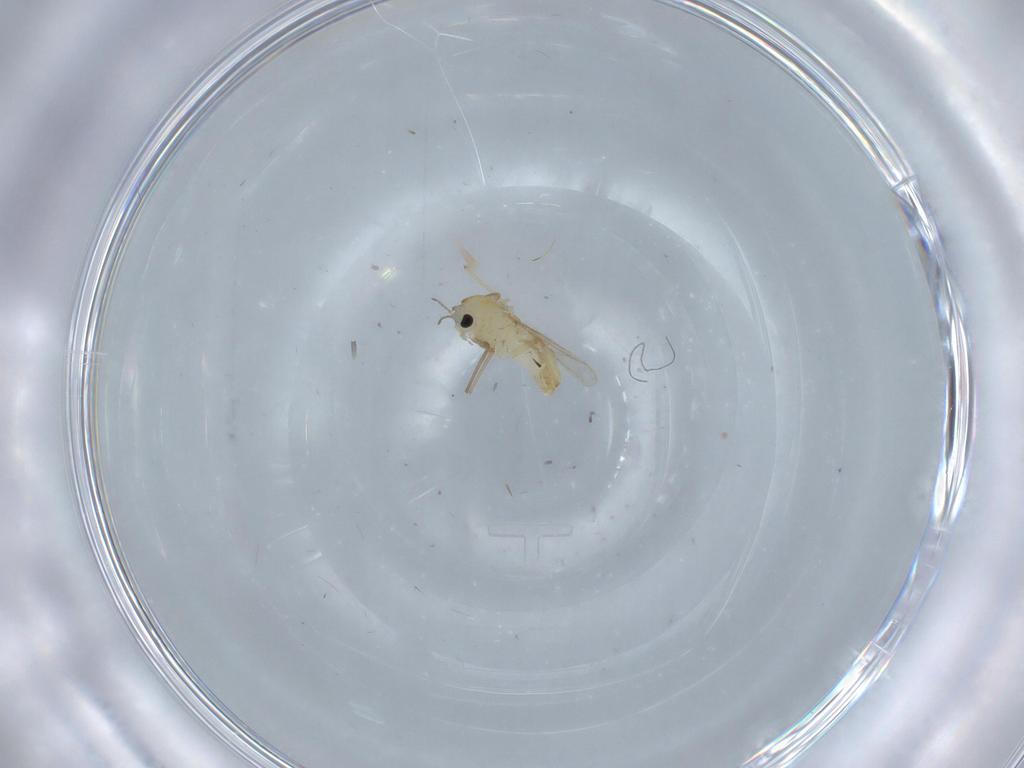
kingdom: Animalia
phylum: Arthropoda
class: Insecta
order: Diptera
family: Chironomidae
